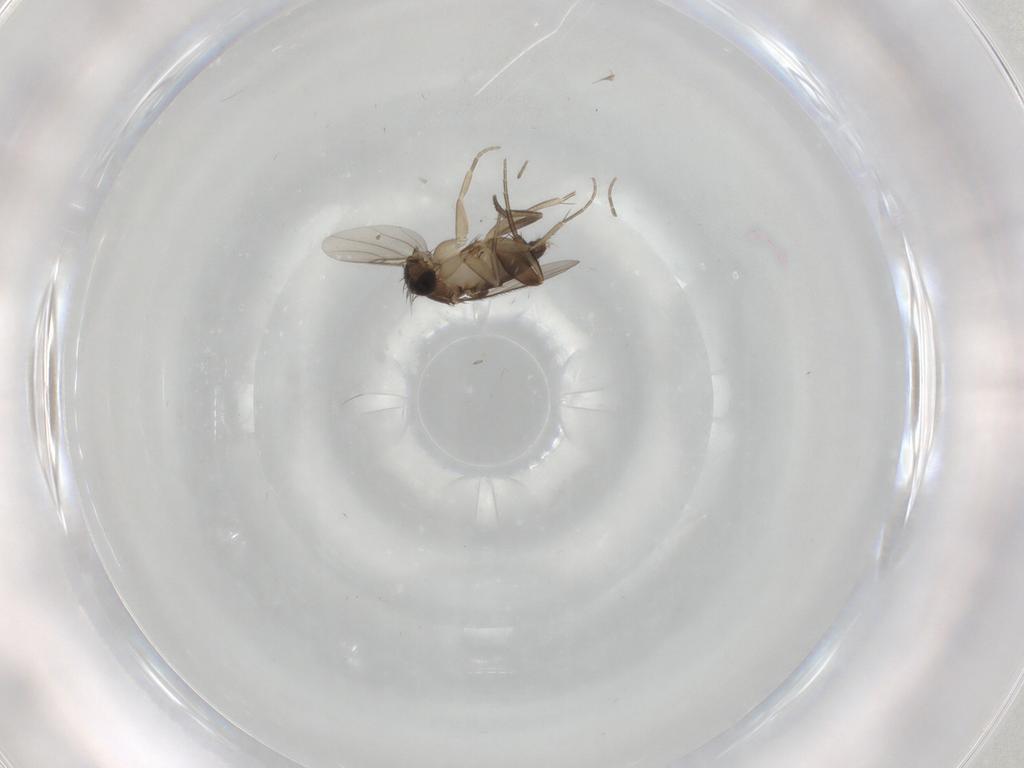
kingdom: Animalia
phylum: Arthropoda
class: Insecta
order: Diptera
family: Phoridae
